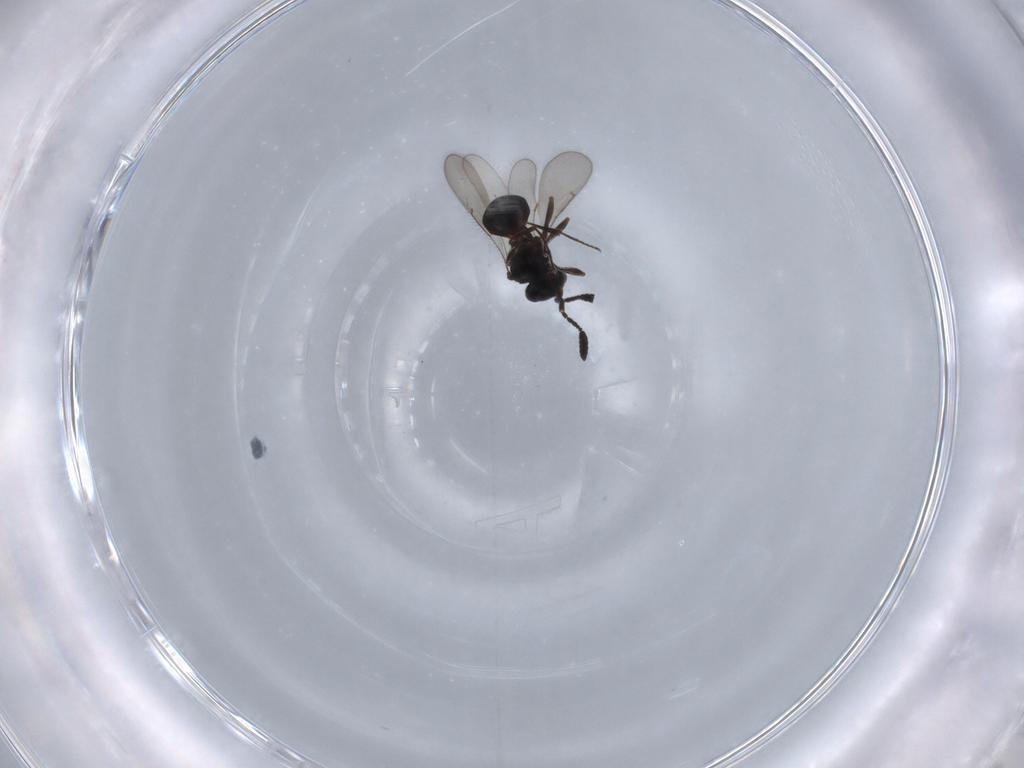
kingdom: Animalia
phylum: Arthropoda
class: Insecta
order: Hymenoptera
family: Scelionidae
